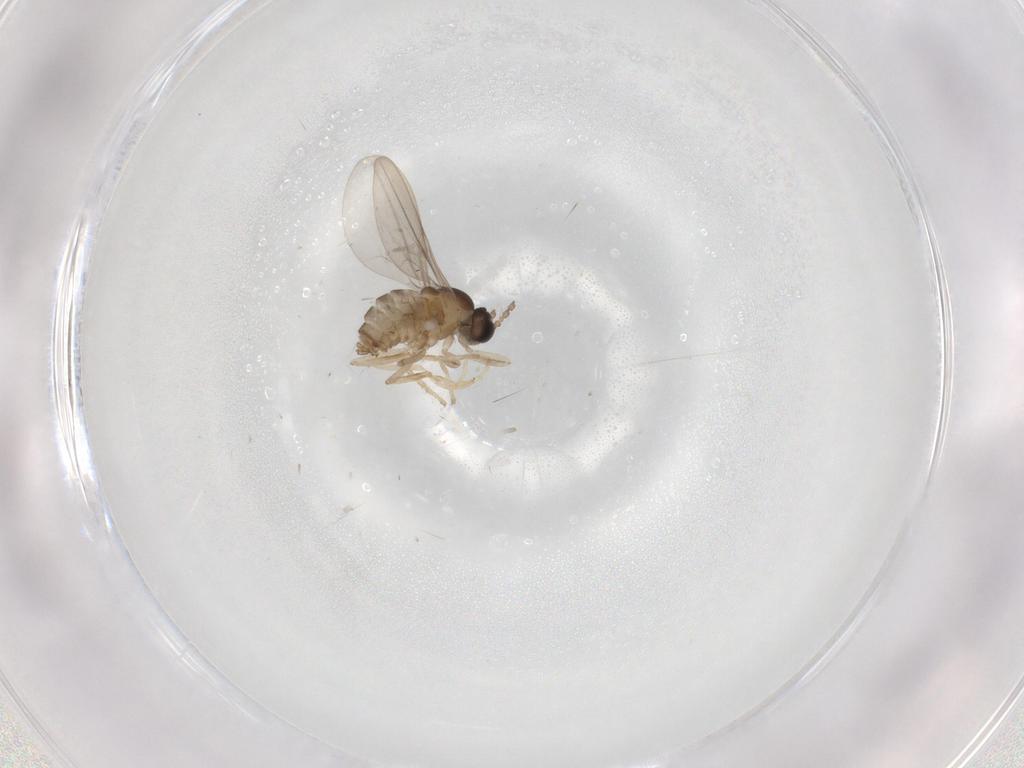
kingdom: Animalia
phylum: Arthropoda
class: Insecta
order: Diptera
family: Cecidomyiidae
